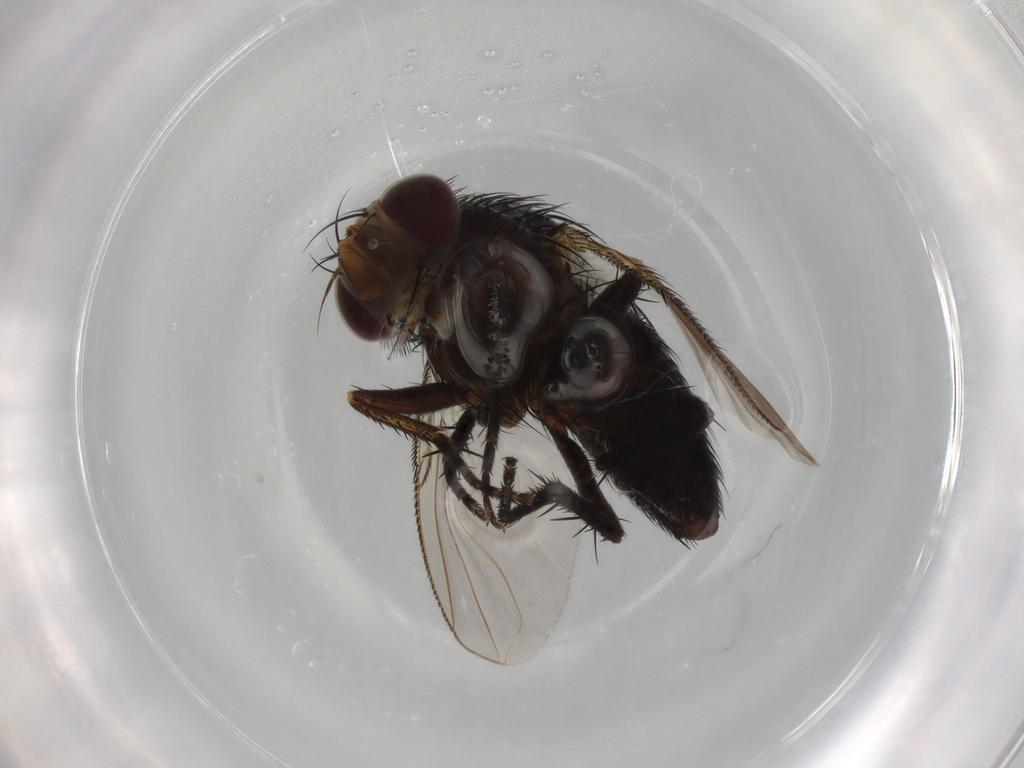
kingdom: Animalia
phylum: Arthropoda
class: Insecta
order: Diptera
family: Tachinidae
